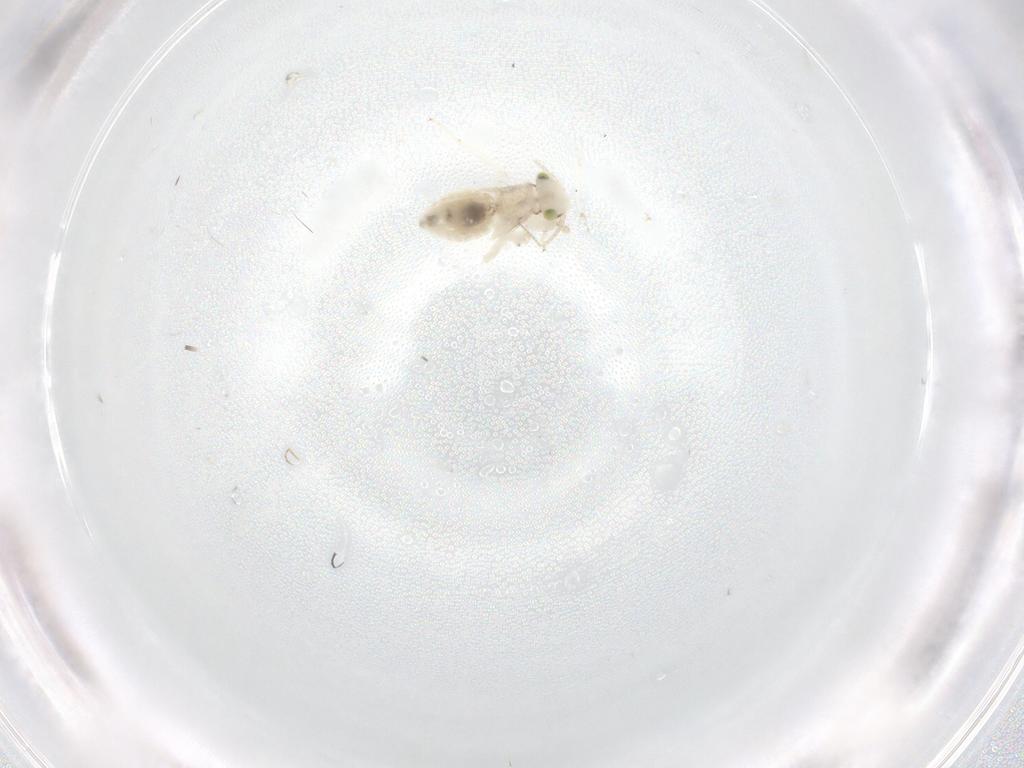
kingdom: Animalia
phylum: Arthropoda
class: Insecta
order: Psocodea
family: Lepidopsocidae
